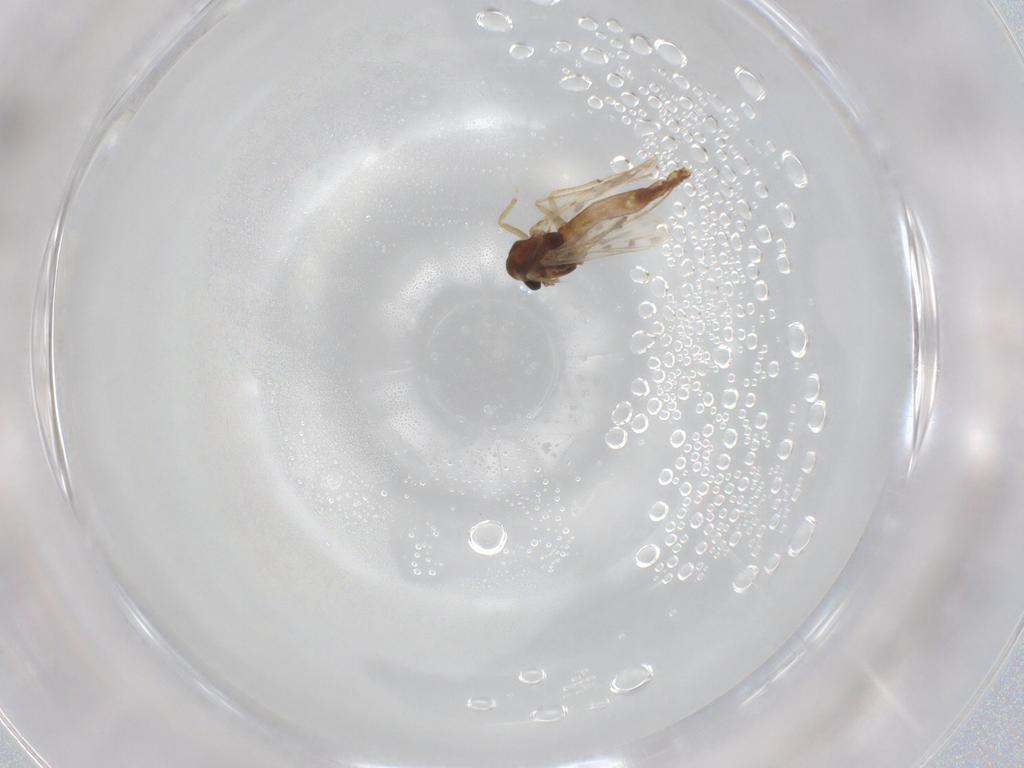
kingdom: Animalia
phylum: Arthropoda
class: Insecta
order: Diptera
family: Chironomidae
